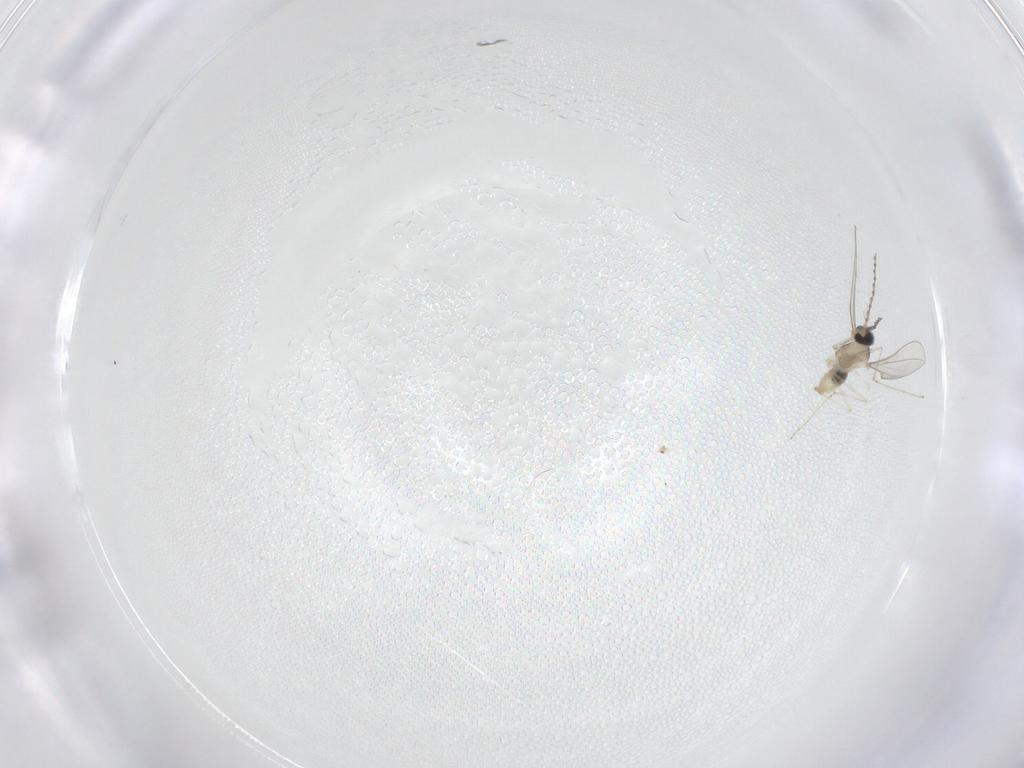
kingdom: Animalia
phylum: Arthropoda
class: Insecta
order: Diptera
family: Cecidomyiidae
